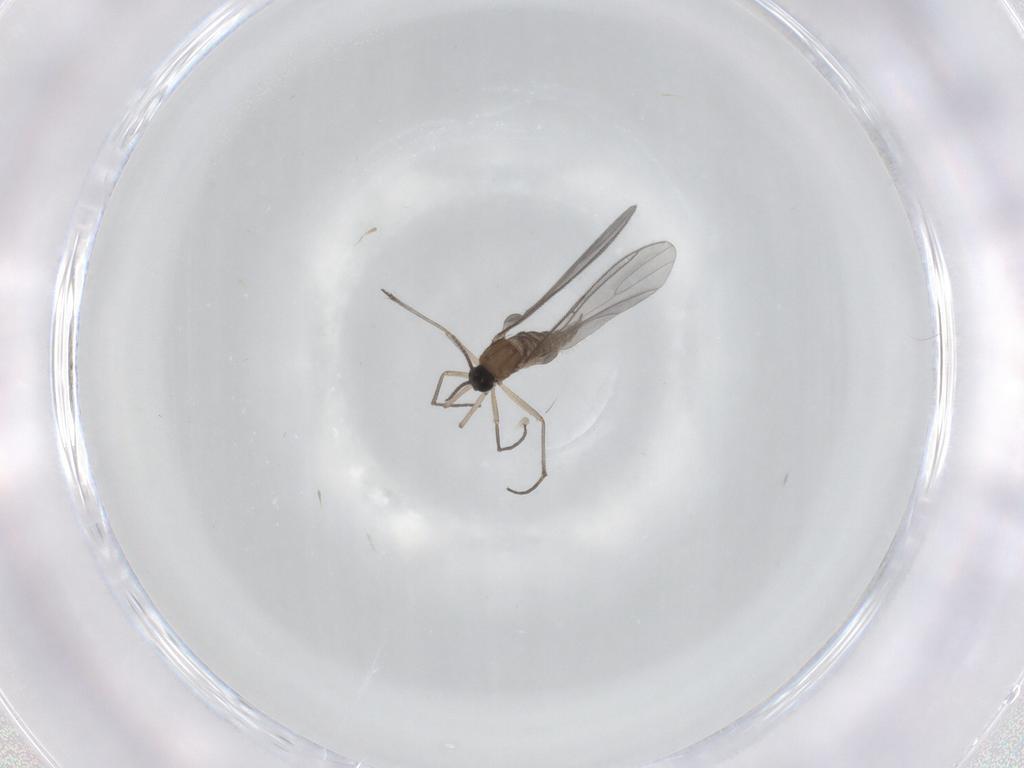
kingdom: Animalia
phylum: Arthropoda
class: Insecta
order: Diptera
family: Sciaridae
